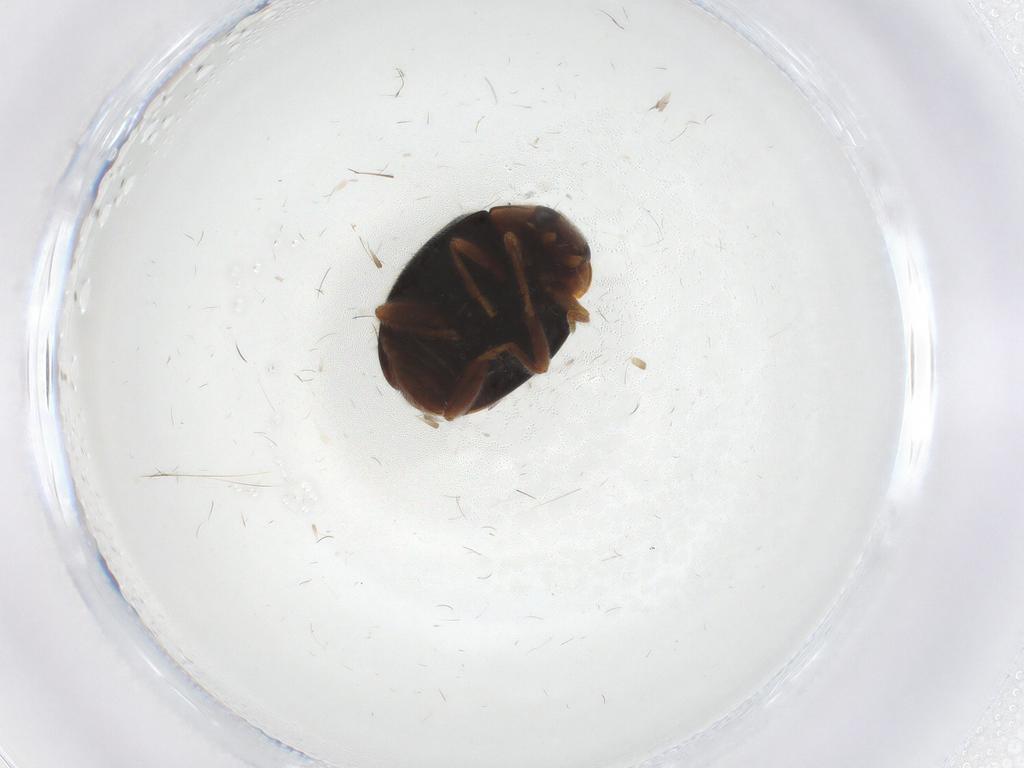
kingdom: Animalia
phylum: Arthropoda
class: Insecta
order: Coleoptera
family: Coccinellidae
